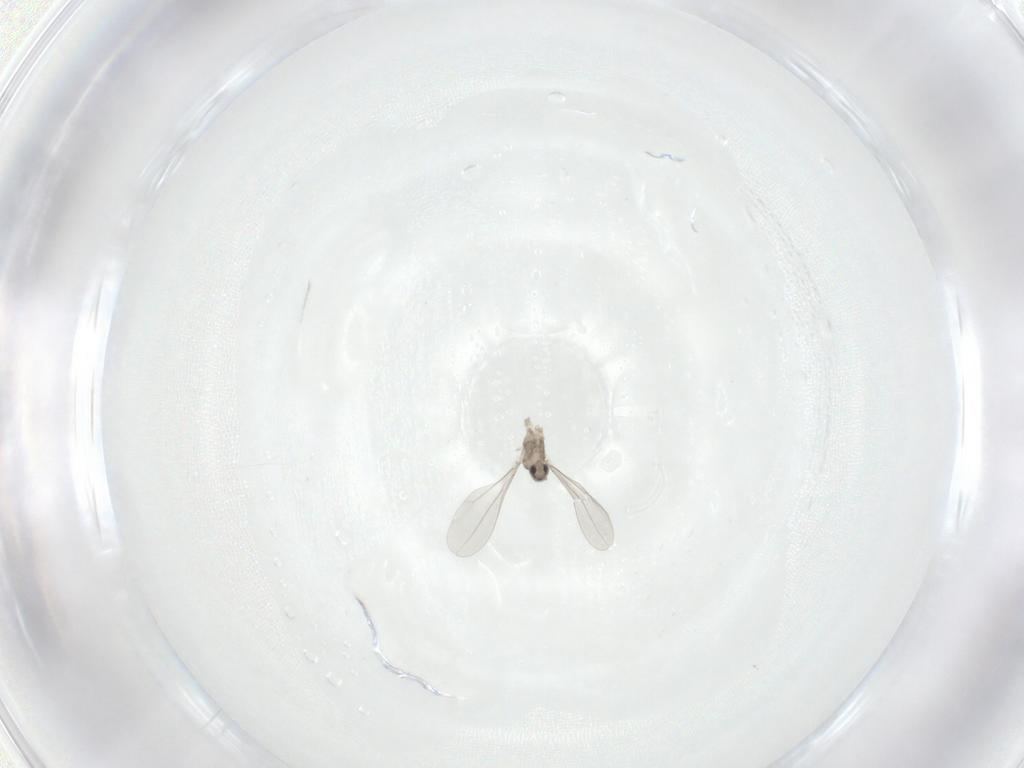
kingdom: Animalia
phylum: Arthropoda
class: Insecta
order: Diptera
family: Cecidomyiidae
